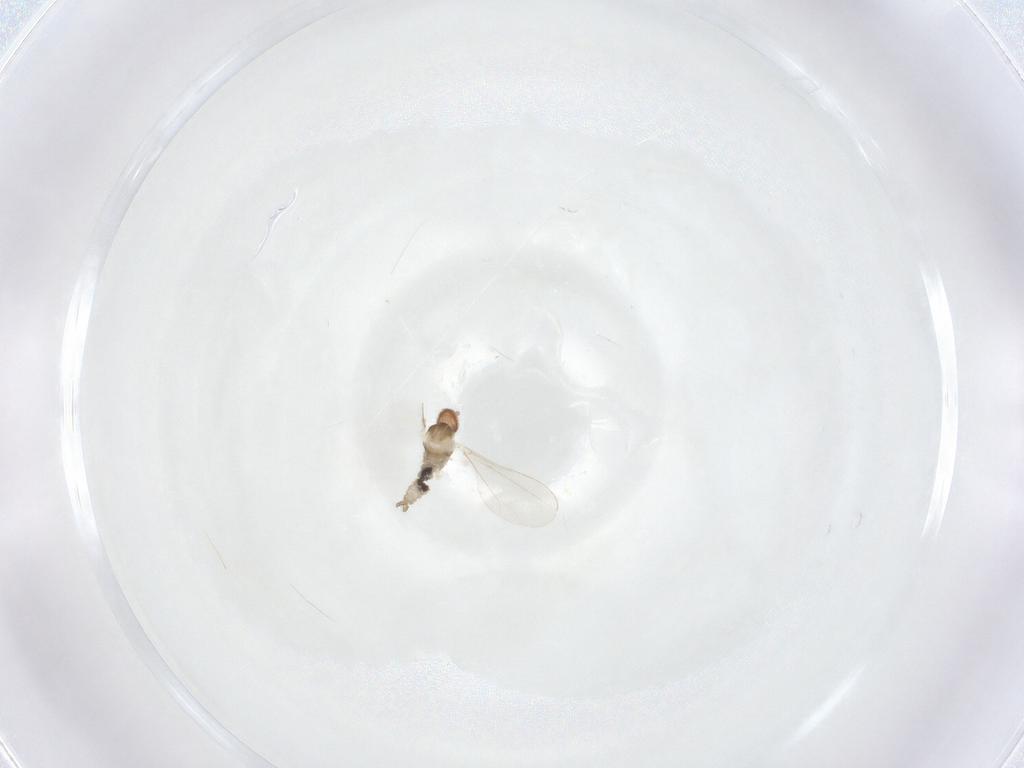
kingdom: Animalia
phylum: Arthropoda
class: Insecta
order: Diptera
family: Cecidomyiidae
